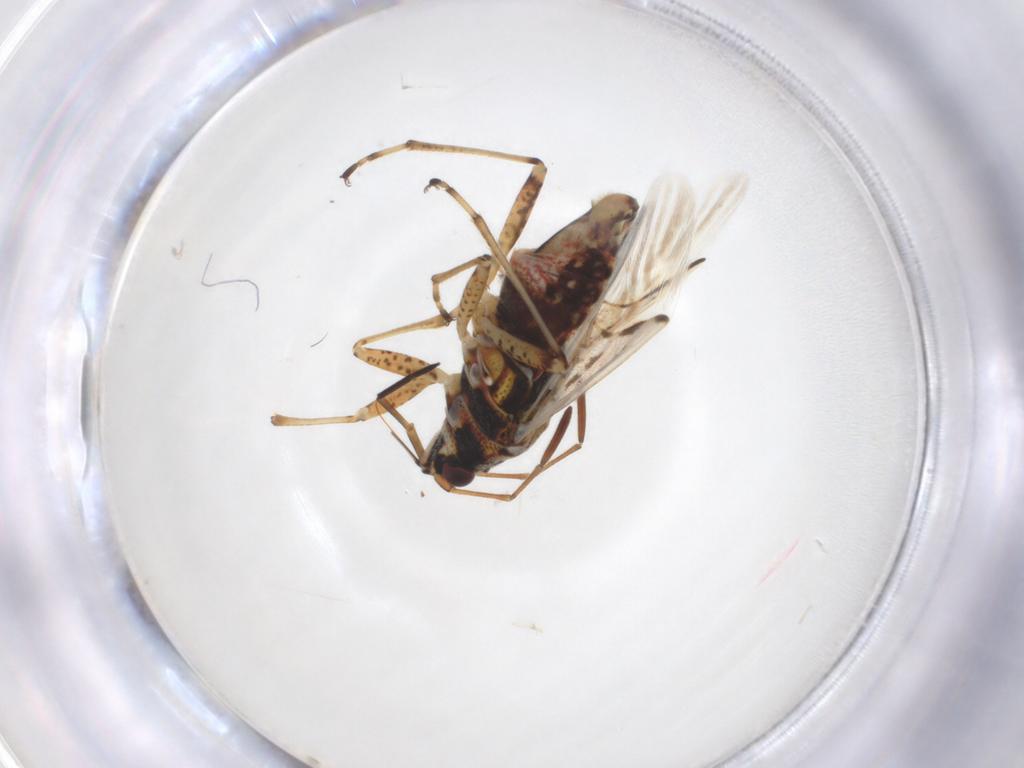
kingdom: Animalia
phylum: Arthropoda
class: Insecta
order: Hemiptera
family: Lygaeidae
